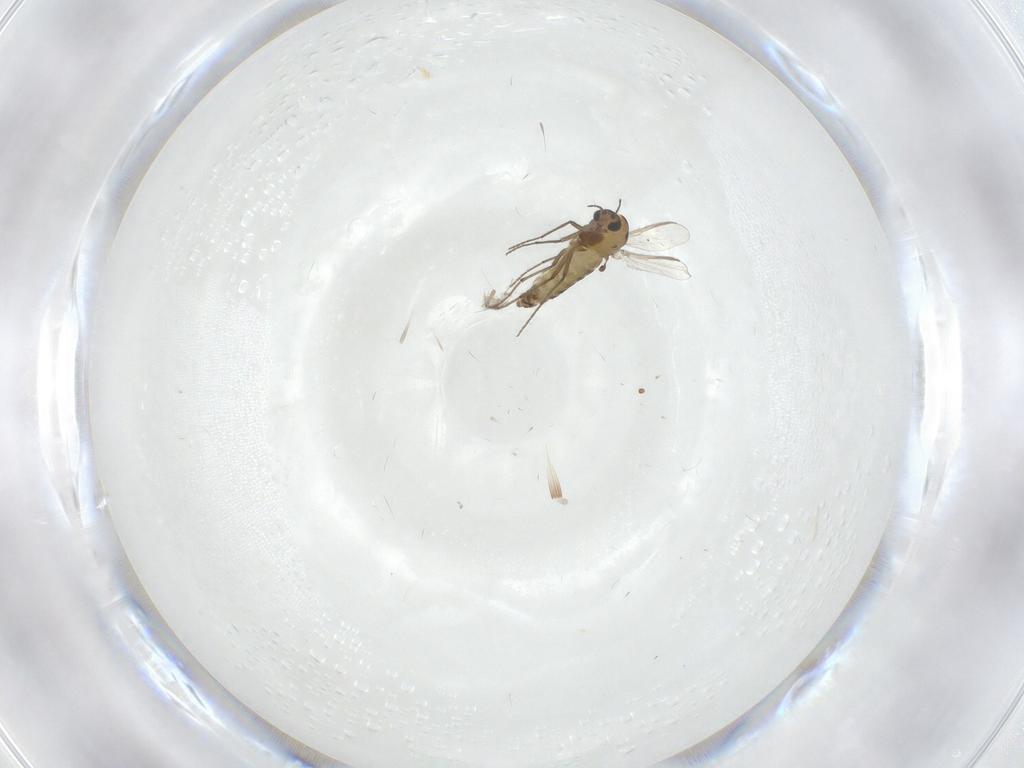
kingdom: Animalia
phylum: Arthropoda
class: Insecta
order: Diptera
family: Chironomidae
